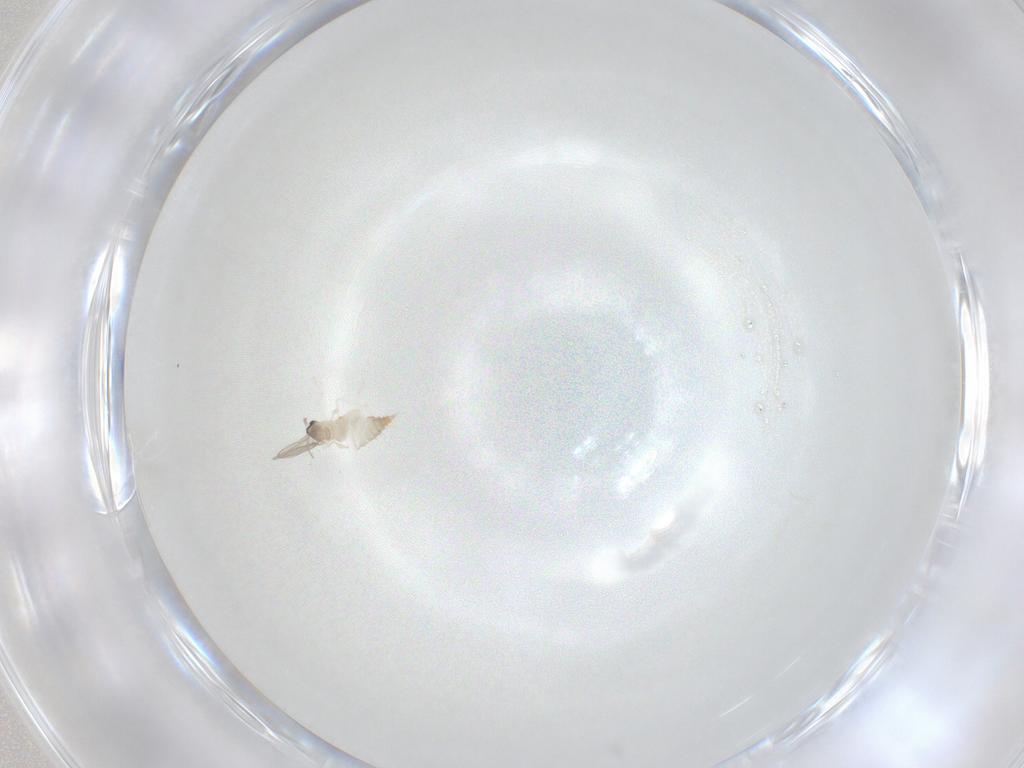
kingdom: Animalia
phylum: Arthropoda
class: Insecta
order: Diptera
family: Cecidomyiidae
